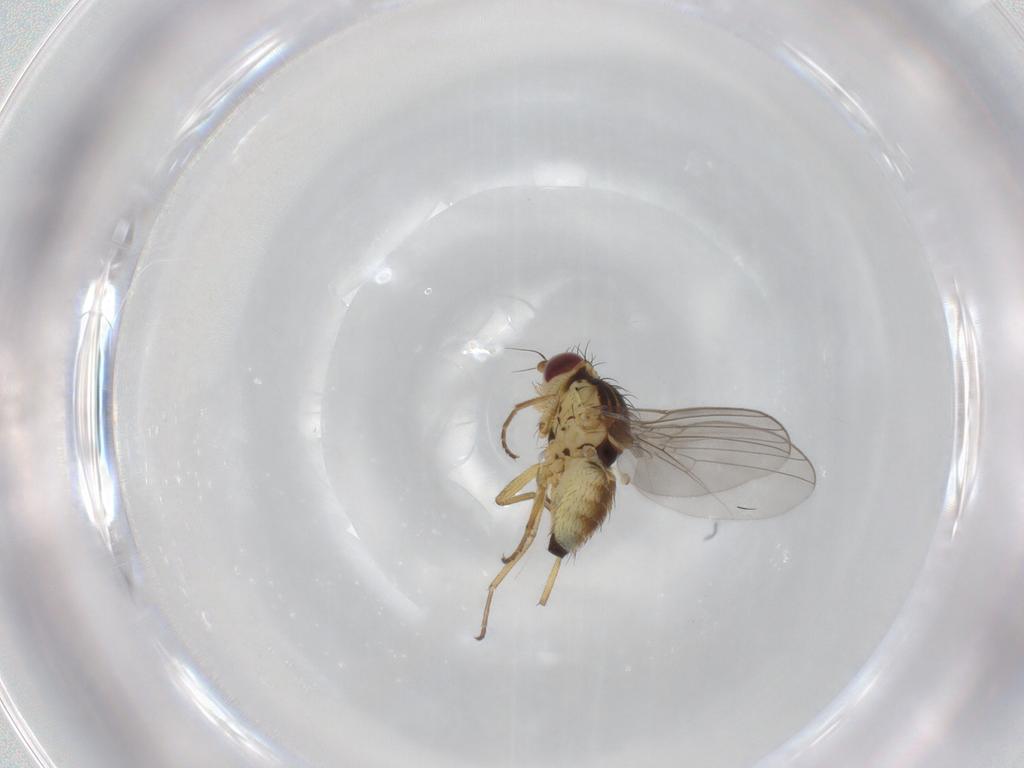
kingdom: Animalia
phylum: Arthropoda
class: Insecta
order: Diptera
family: Agromyzidae
